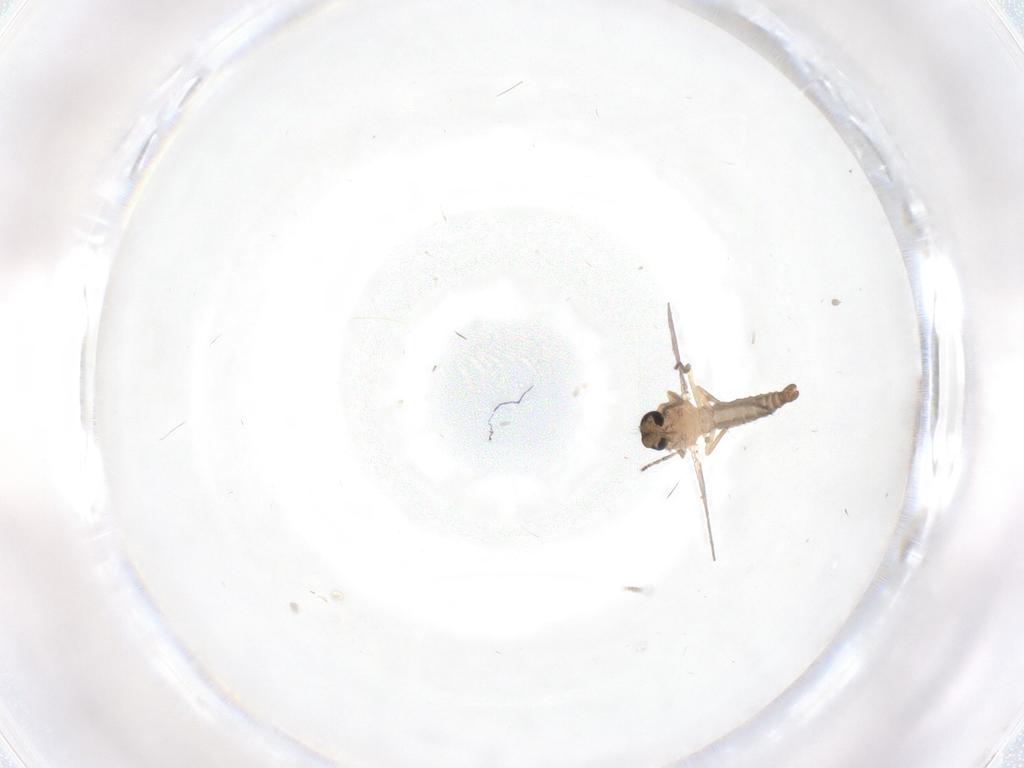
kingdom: Animalia
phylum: Arthropoda
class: Insecta
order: Diptera
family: Ceratopogonidae
